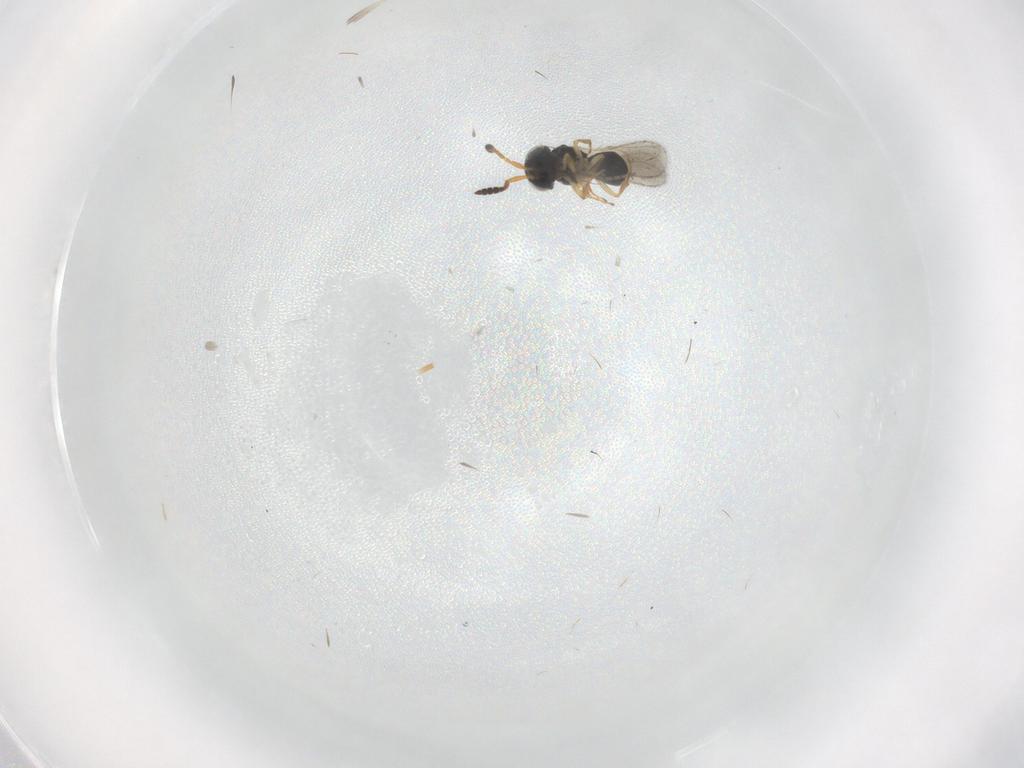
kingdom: Animalia
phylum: Arthropoda
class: Insecta
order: Hymenoptera
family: Scelionidae
